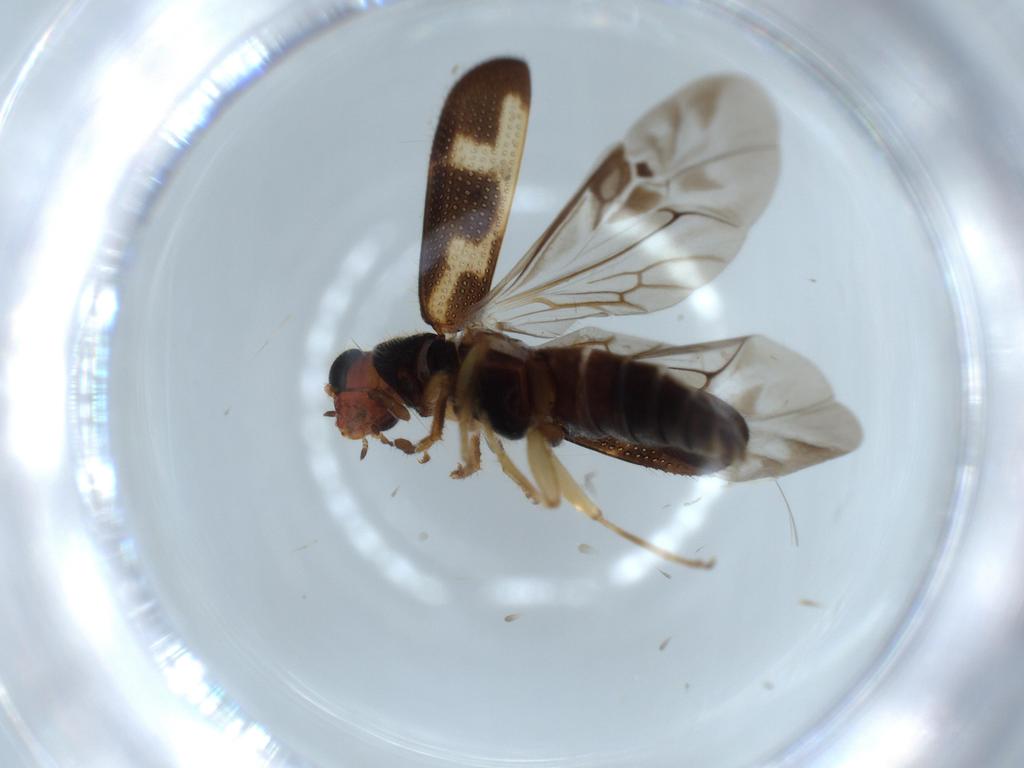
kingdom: Animalia
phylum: Arthropoda
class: Insecta
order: Coleoptera
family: Cleridae
